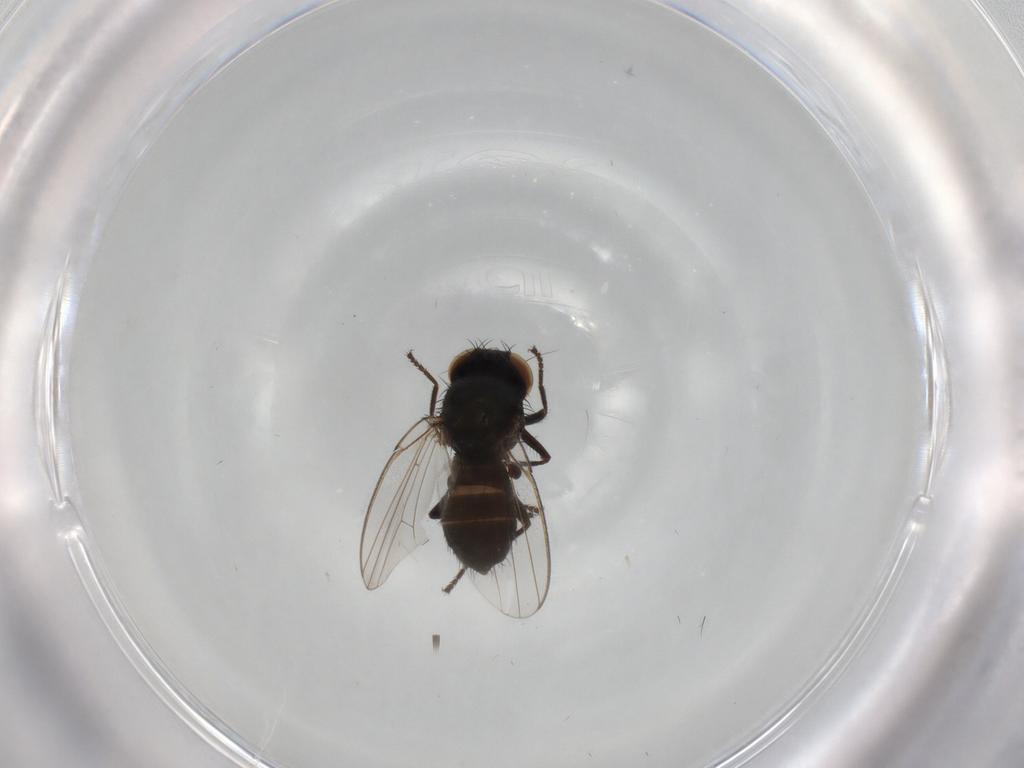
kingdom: Animalia
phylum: Arthropoda
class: Insecta
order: Diptera
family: Milichiidae
